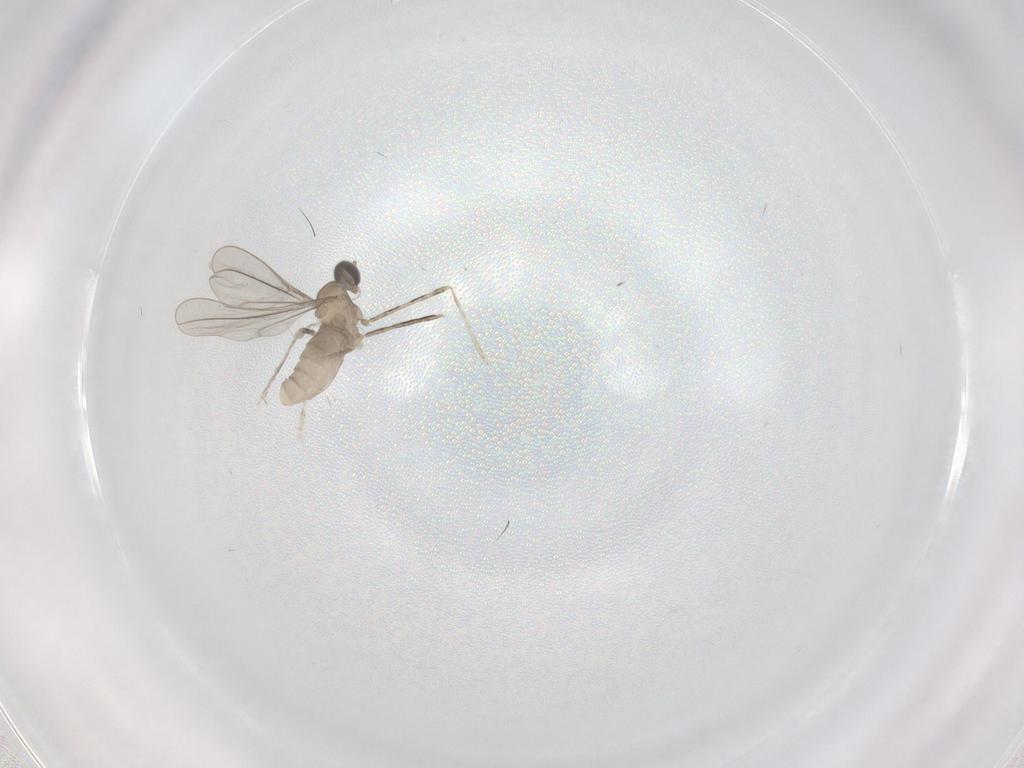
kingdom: Animalia
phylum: Arthropoda
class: Insecta
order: Diptera
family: Cecidomyiidae
